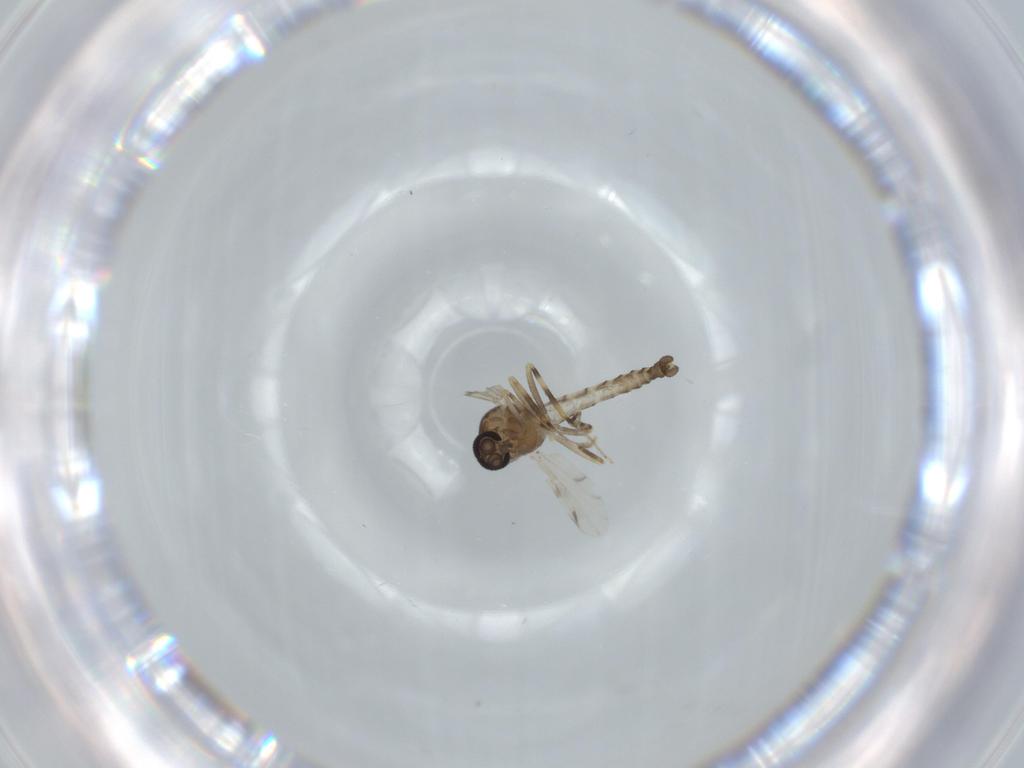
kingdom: Animalia
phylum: Arthropoda
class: Insecta
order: Diptera
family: Ceratopogonidae
